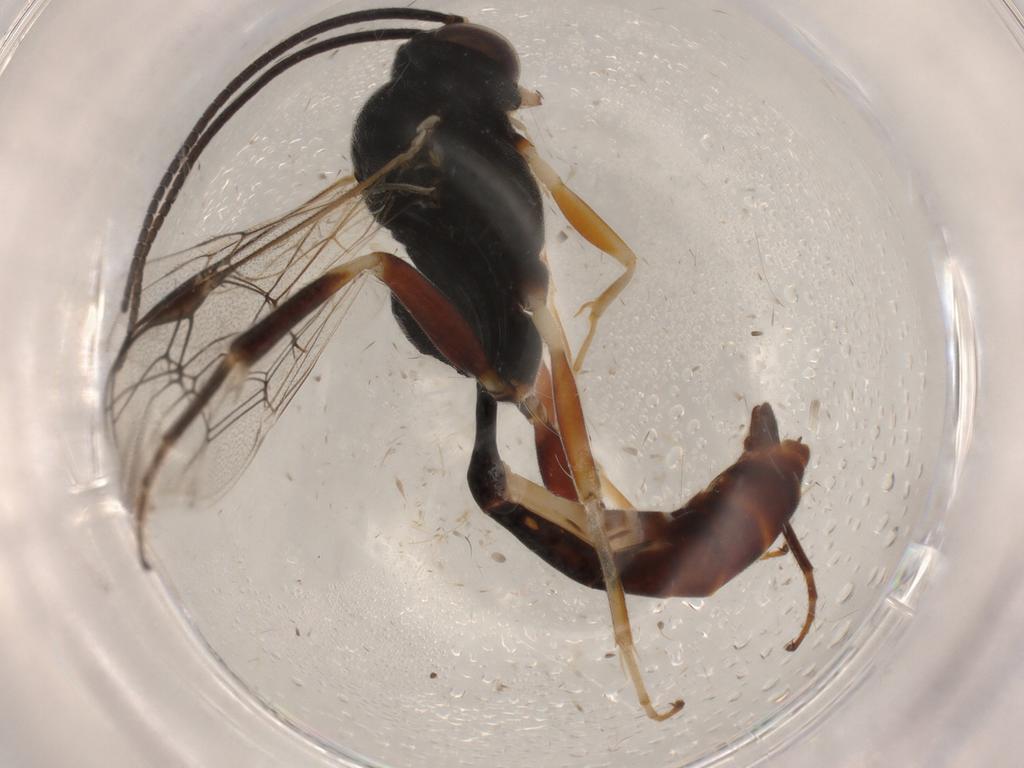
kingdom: Animalia
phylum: Arthropoda
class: Insecta
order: Hymenoptera
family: Ichneumonidae
